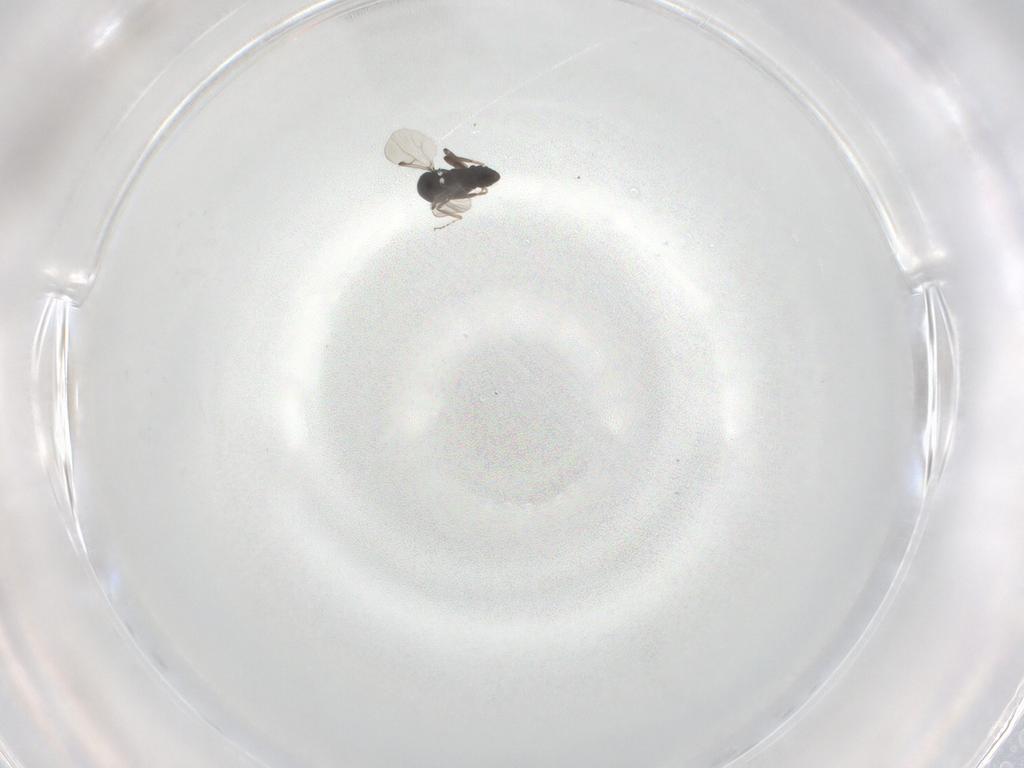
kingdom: Animalia
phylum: Arthropoda
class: Insecta
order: Diptera
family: Ceratopogonidae
